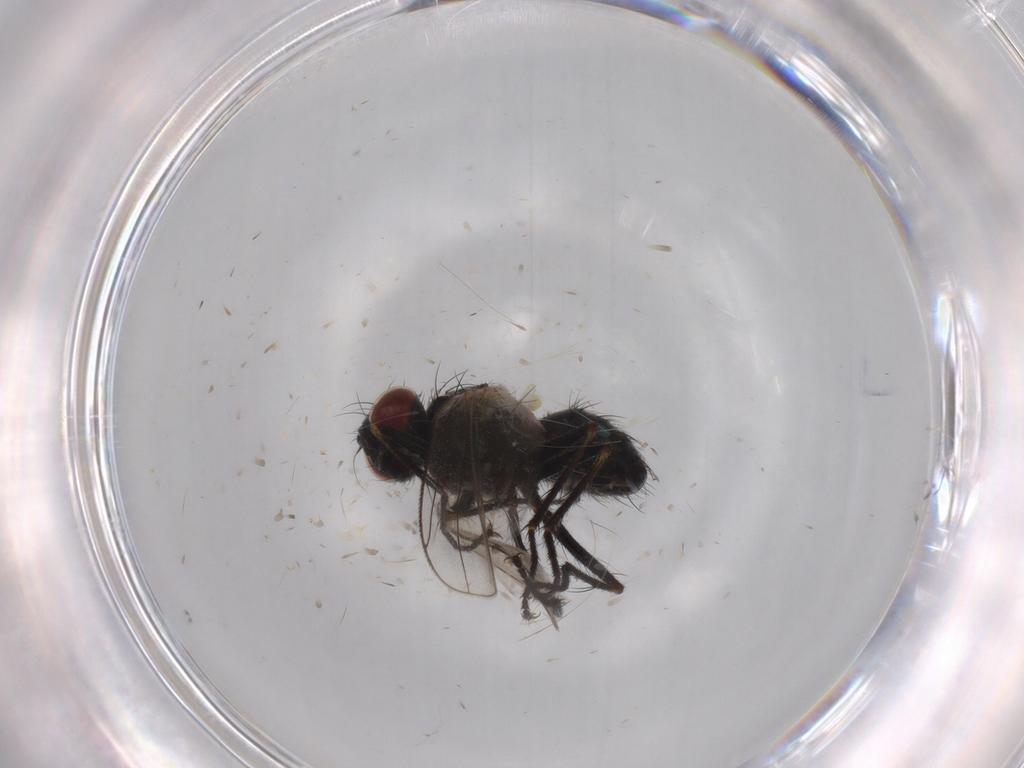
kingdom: Animalia
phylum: Arthropoda
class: Insecta
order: Diptera
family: Muscidae
